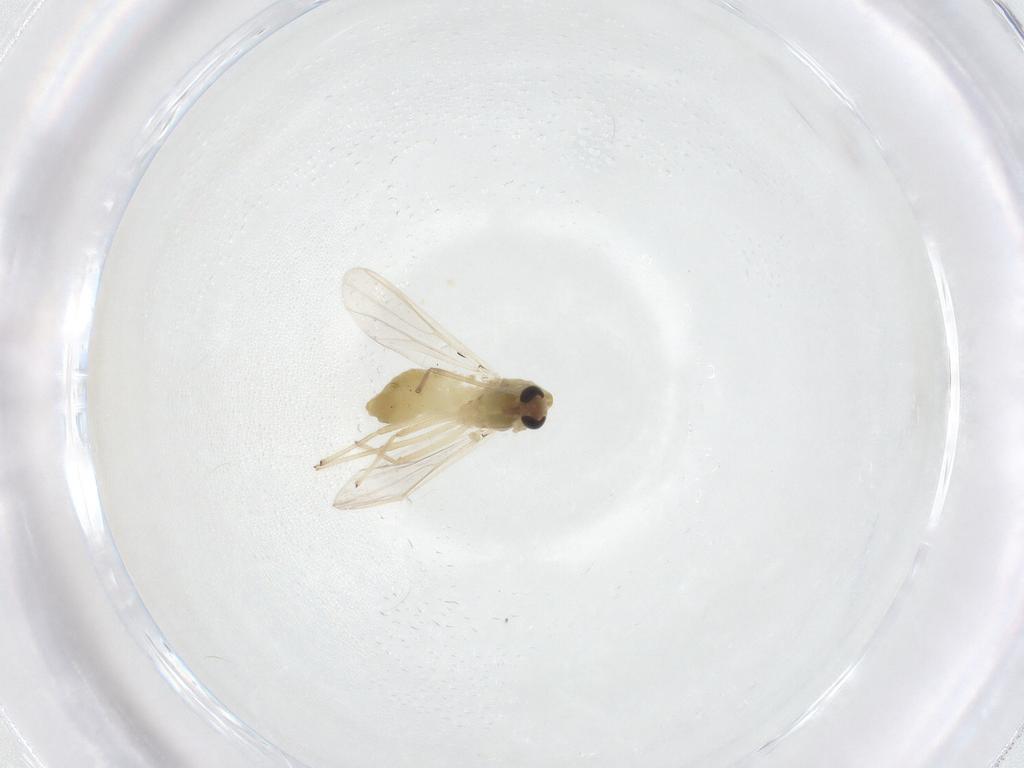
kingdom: Animalia
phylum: Arthropoda
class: Insecta
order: Diptera
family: Chironomidae
